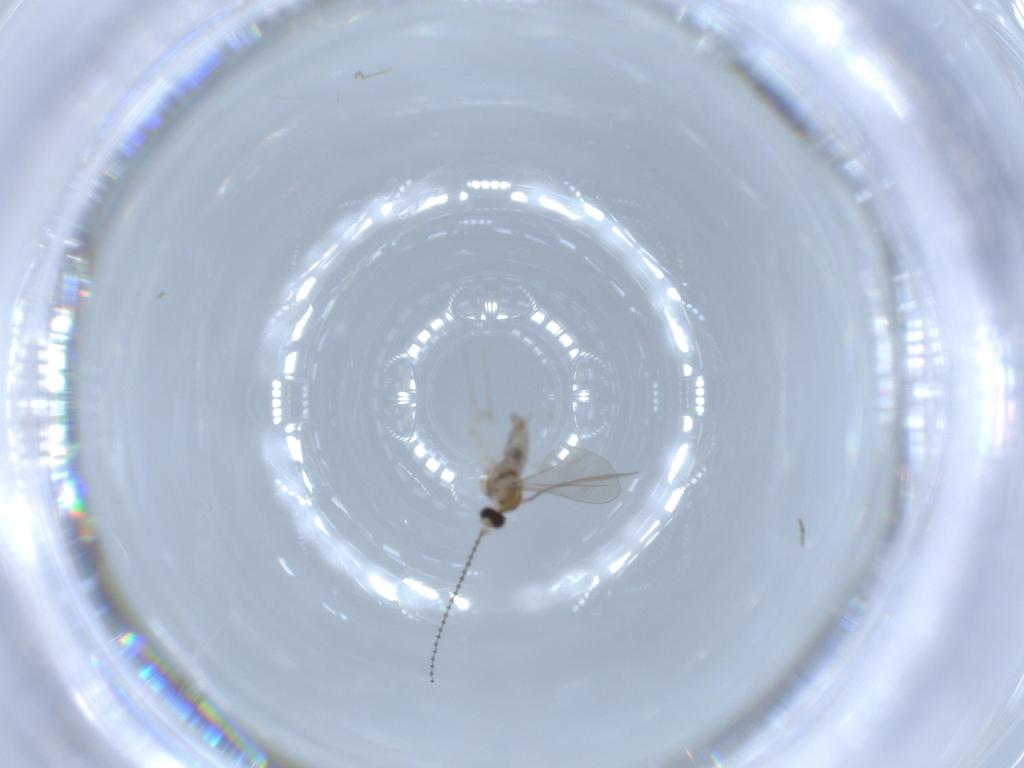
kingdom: Animalia
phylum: Arthropoda
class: Insecta
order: Diptera
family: Cecidomyiidae
